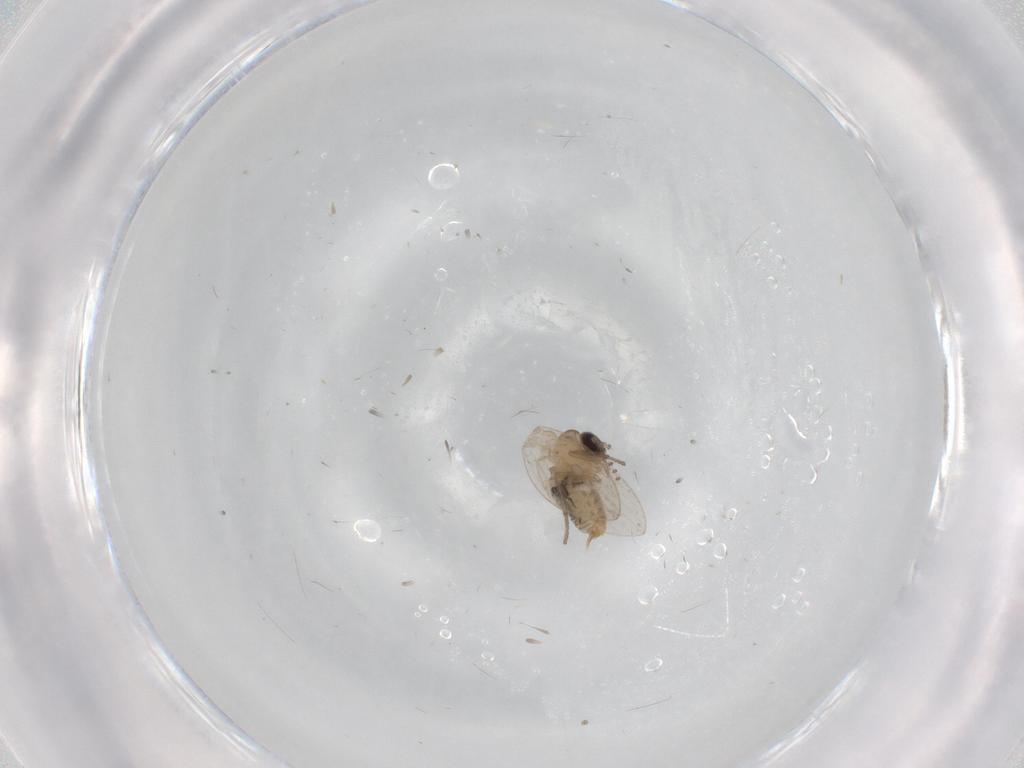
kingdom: Animalia
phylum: Arthropoda
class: Insecta
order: Diptera
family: Psychodidae
